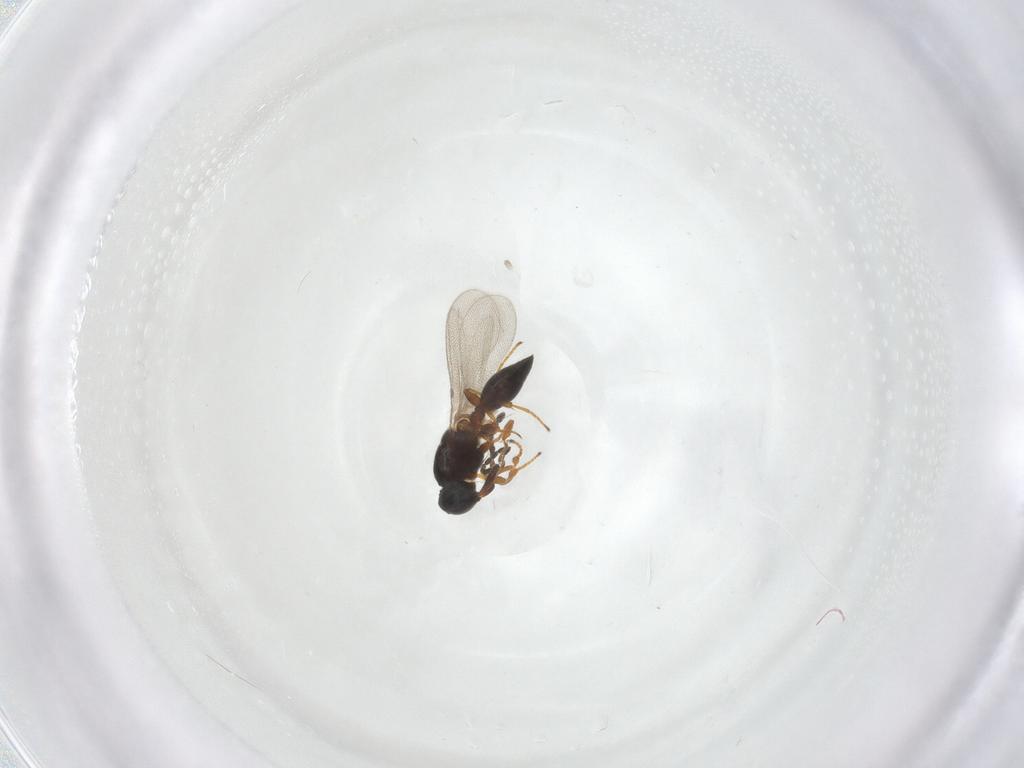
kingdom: Animalia
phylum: Arthropoda
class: Insecta
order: Hymenoptera
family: Platygastridae
